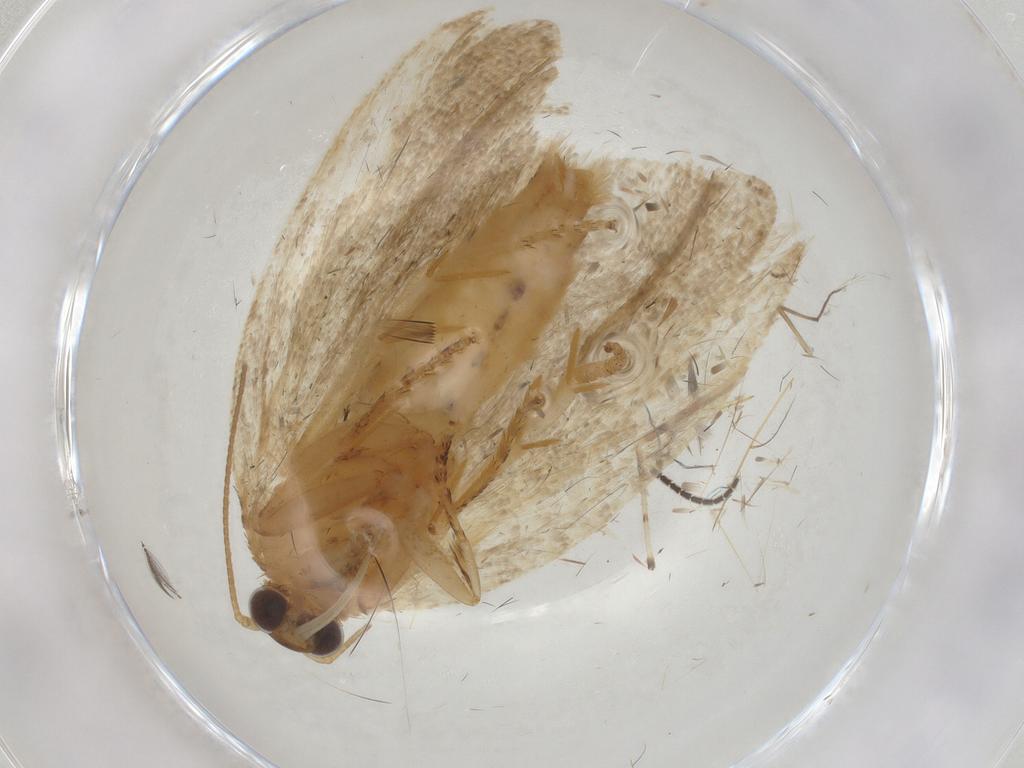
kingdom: Animalia
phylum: Arthropoda
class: Insecta
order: Lepidoptera
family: Tortricidae
